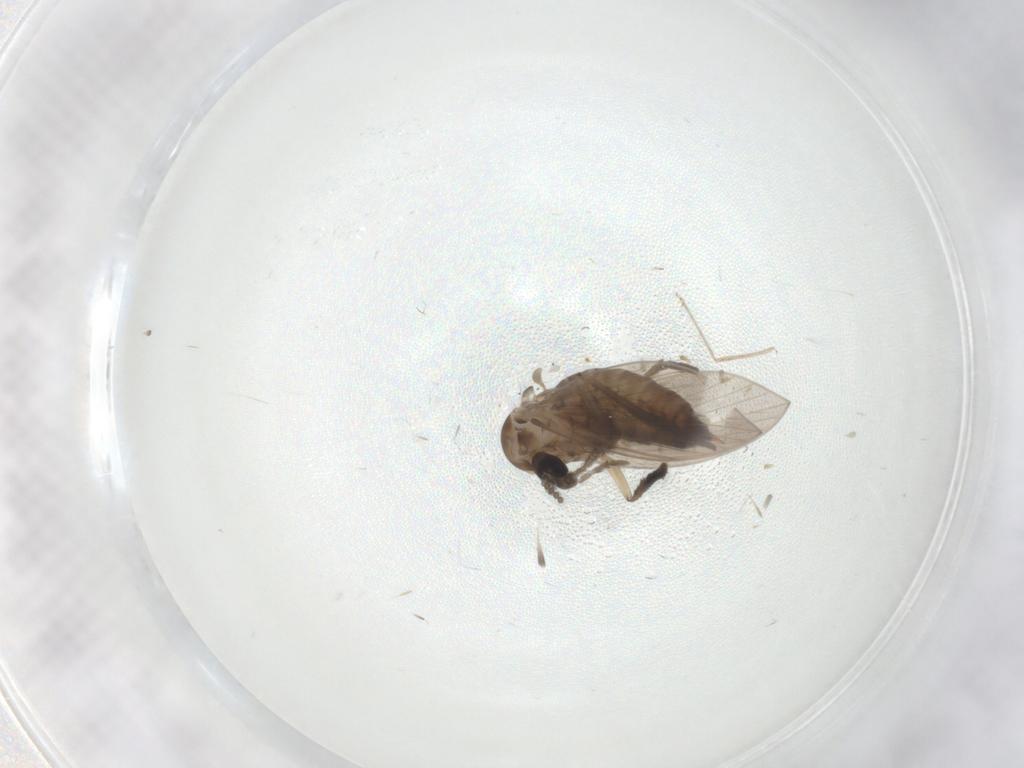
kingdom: Animalia
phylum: Arthropoda
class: Insecta
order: Diptera
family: Psychodidae
